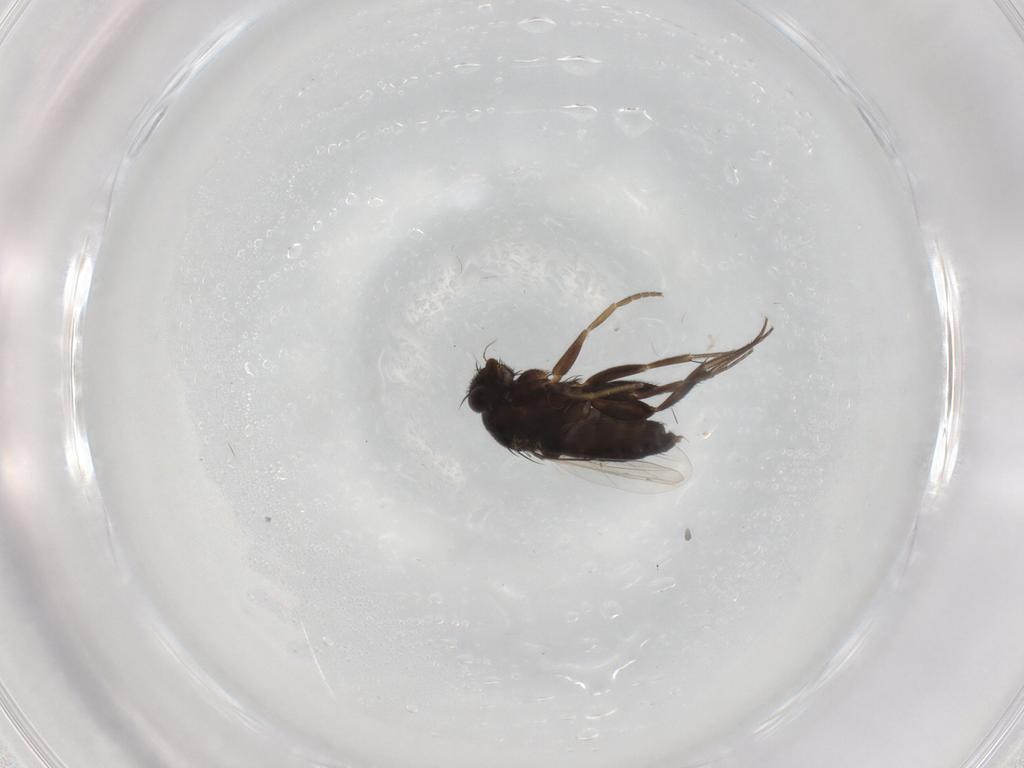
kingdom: Animalia
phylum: Arthropoda
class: Insecta
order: Diptera
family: Phoridae
